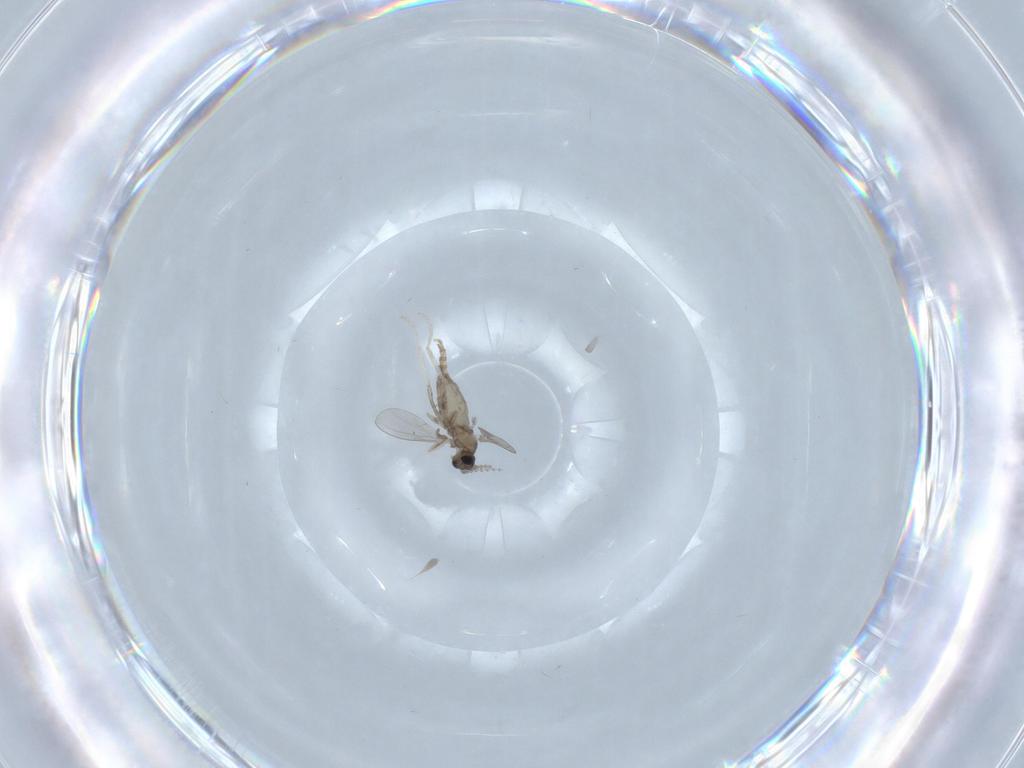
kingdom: Animalia
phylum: Arthropoda
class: Insecta
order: Diptera
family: Cecidomyiidae
